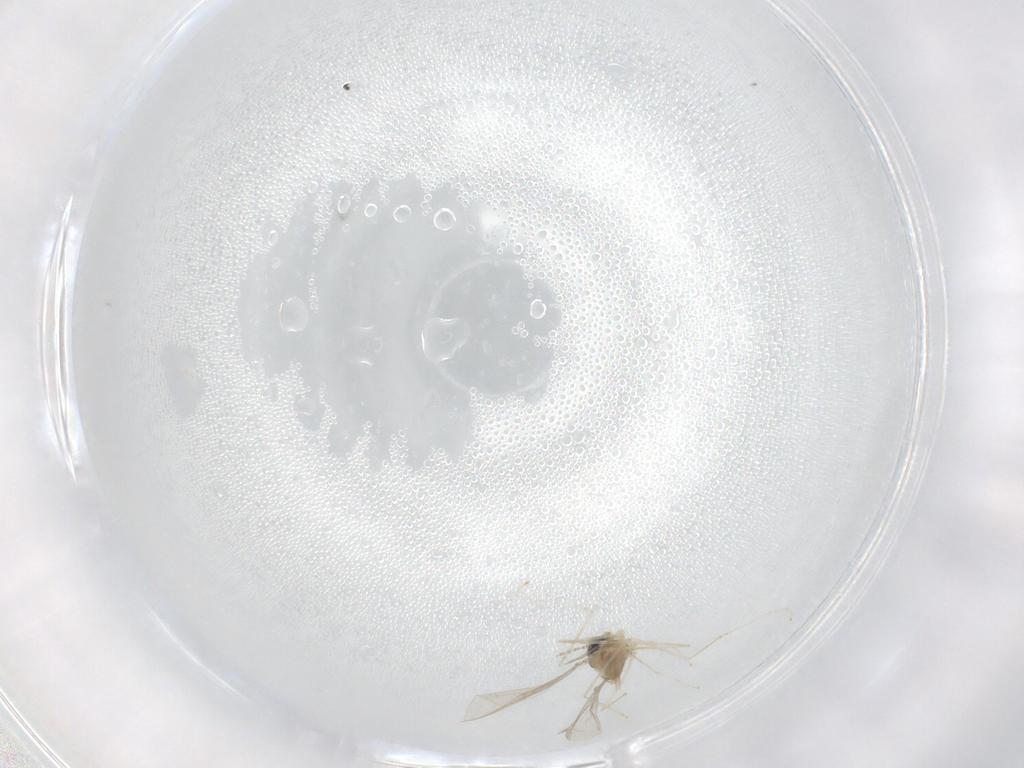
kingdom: Animalia
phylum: Arthropoda
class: Insecta
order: Diptera
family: Cecidomyiidae
